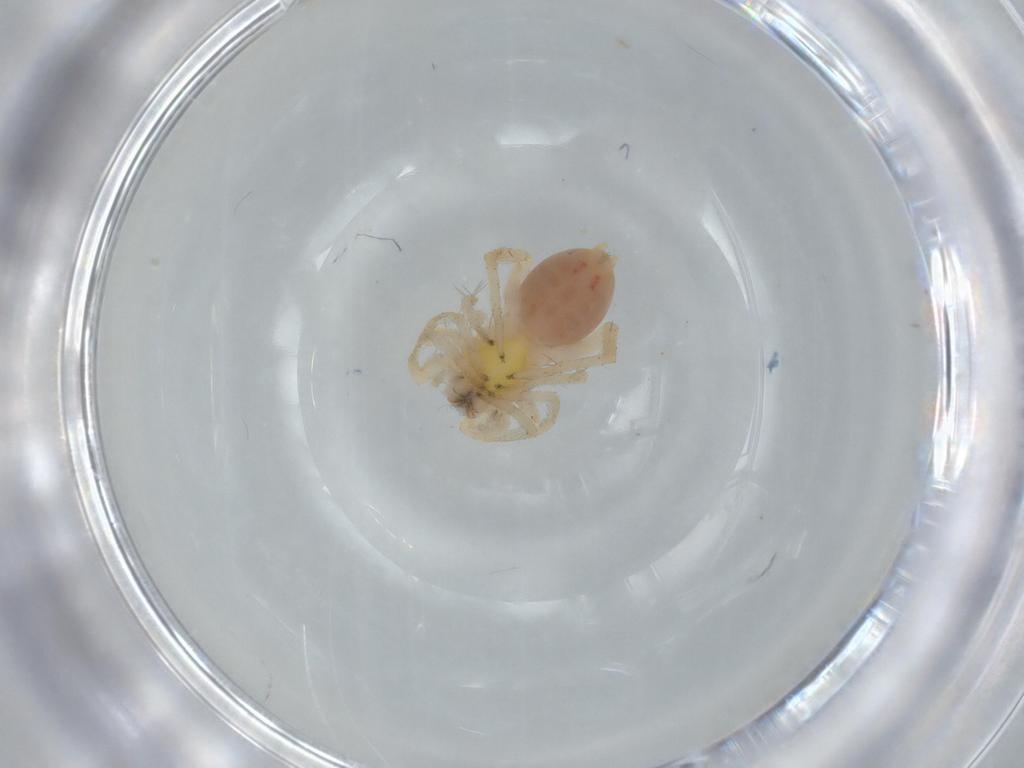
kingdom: Animalia
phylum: Arthropoda
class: Arachnida
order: Araneae
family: Anyphaenidae
